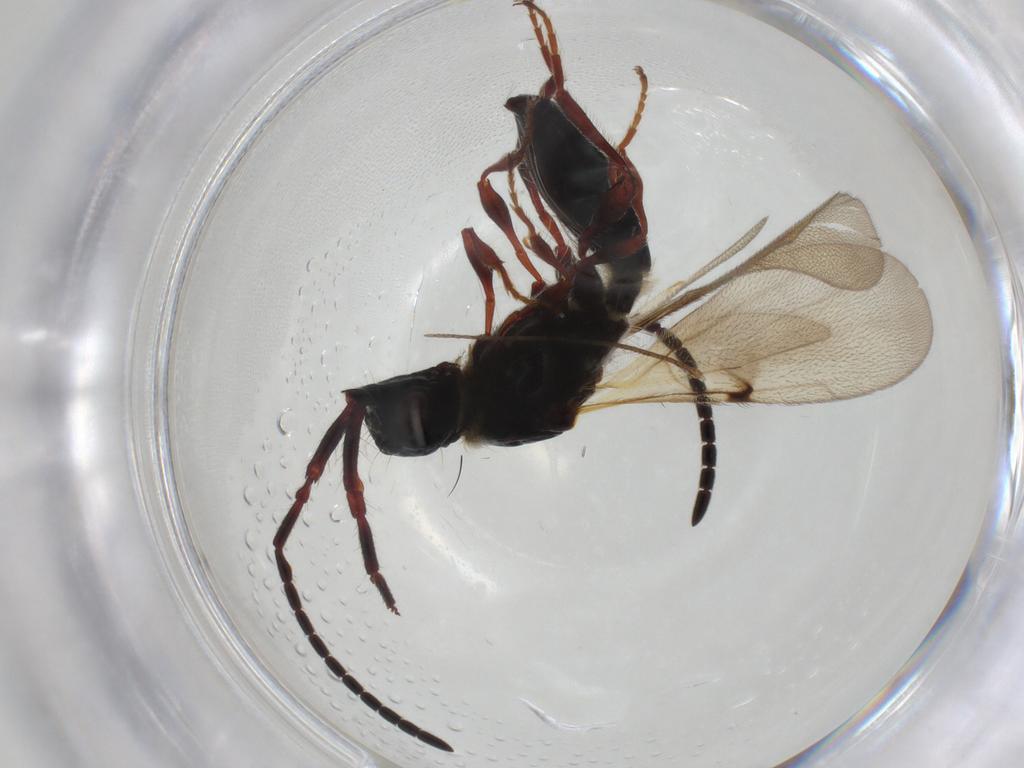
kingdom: Animalia
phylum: Arthropoda
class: Insecta
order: Hymenoptera
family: Diapriidae
